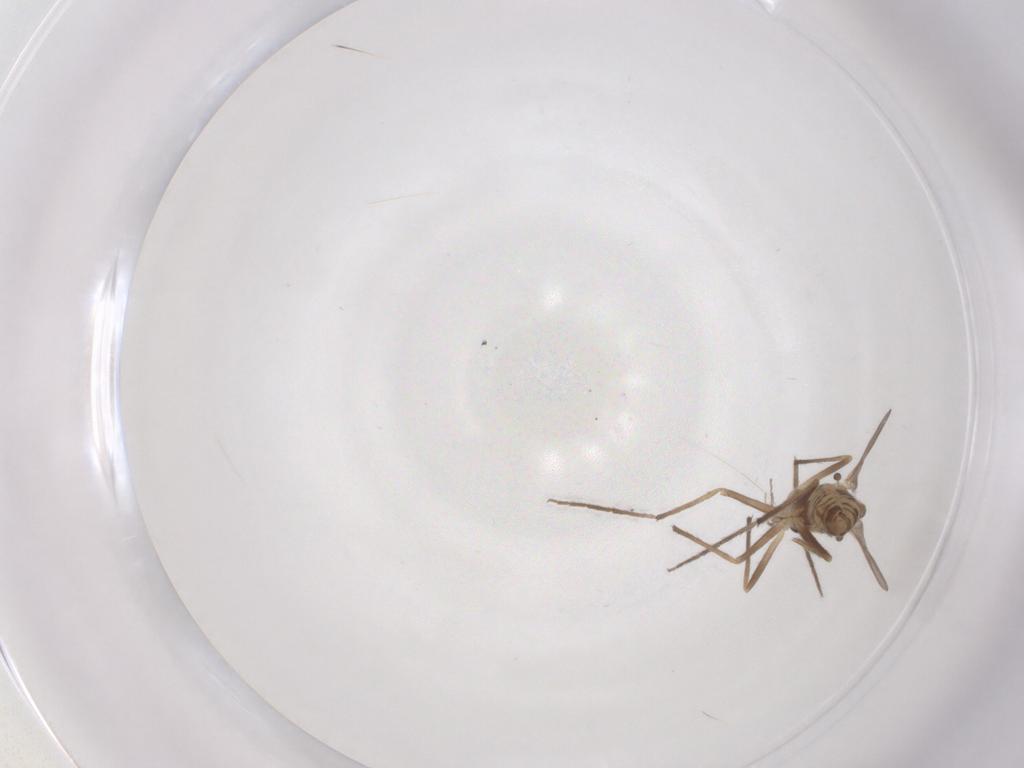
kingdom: Animalia
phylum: Arthropoda
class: Insecta
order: Diptera
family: Chironomidae
